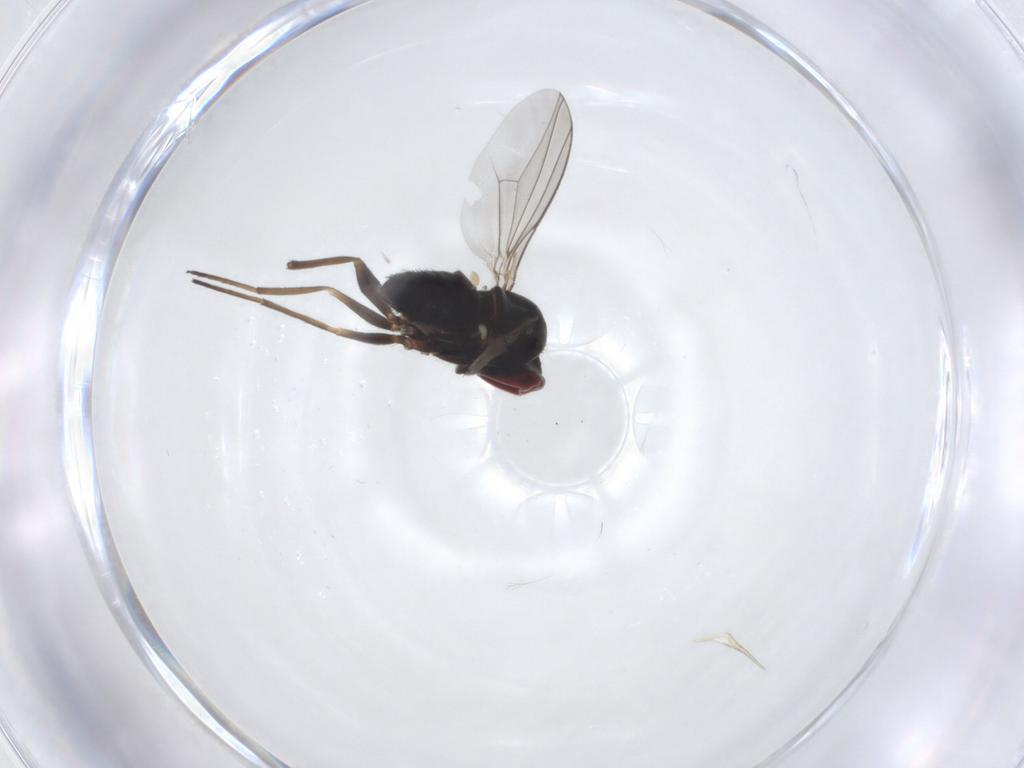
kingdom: Animalia
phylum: Arthropoda
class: Insecta
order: Diptera
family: Dolichopodidae
